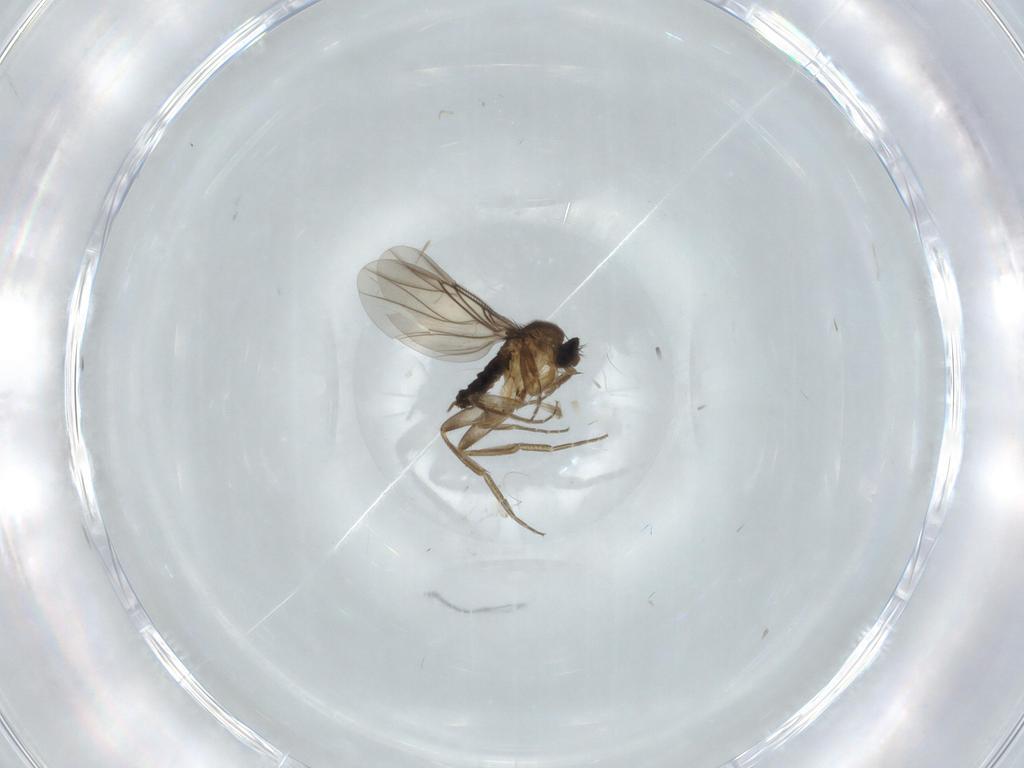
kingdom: Animalia
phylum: Arthropoda
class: Insecta
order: Diptera
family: Phoridae
